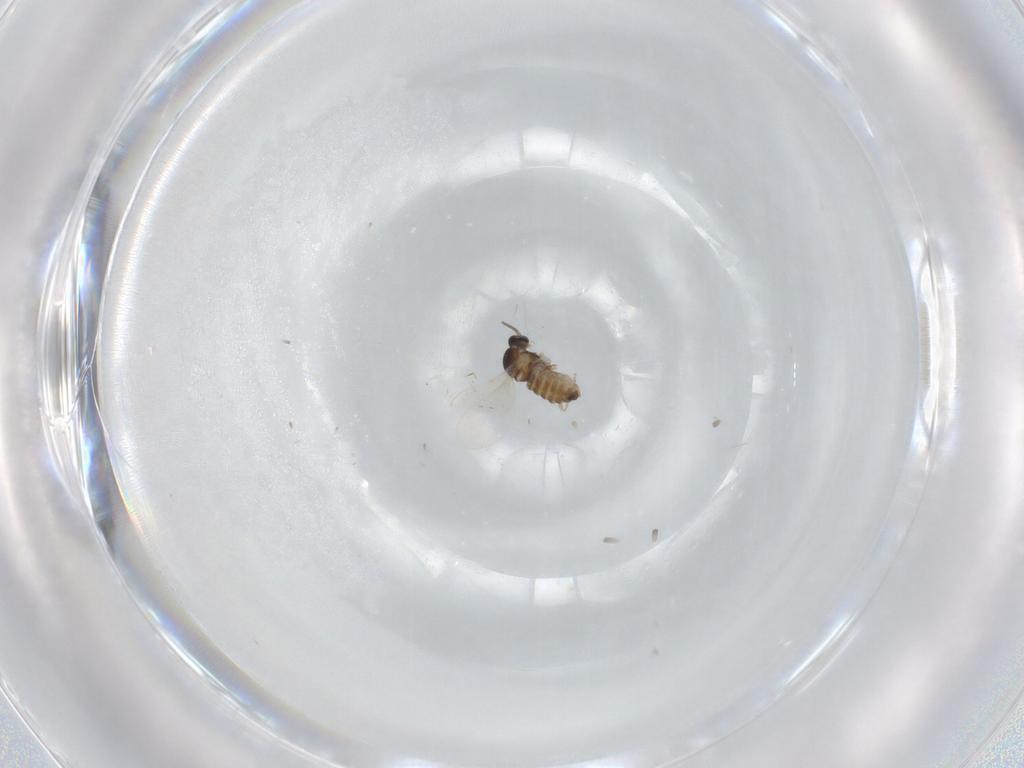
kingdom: Animalia
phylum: Arthropoda
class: Insecta
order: Diptera
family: Cecidomyiidae
